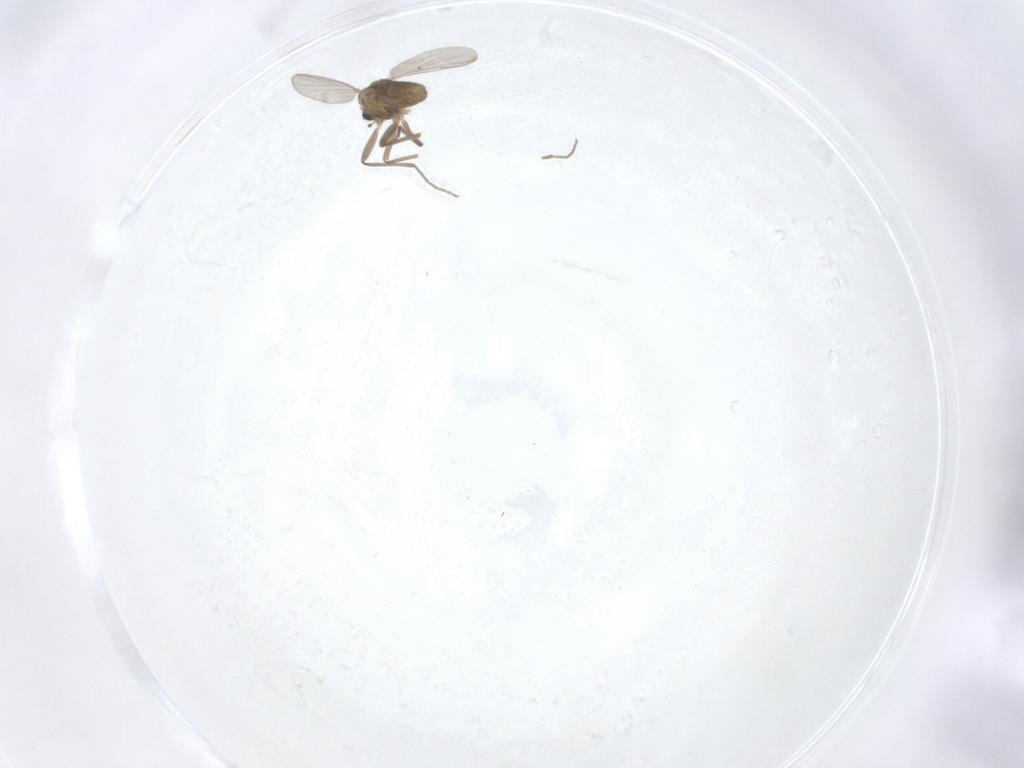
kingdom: Animalia
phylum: Arthropoda
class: Insecta
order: Diptera
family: Chironomidae
